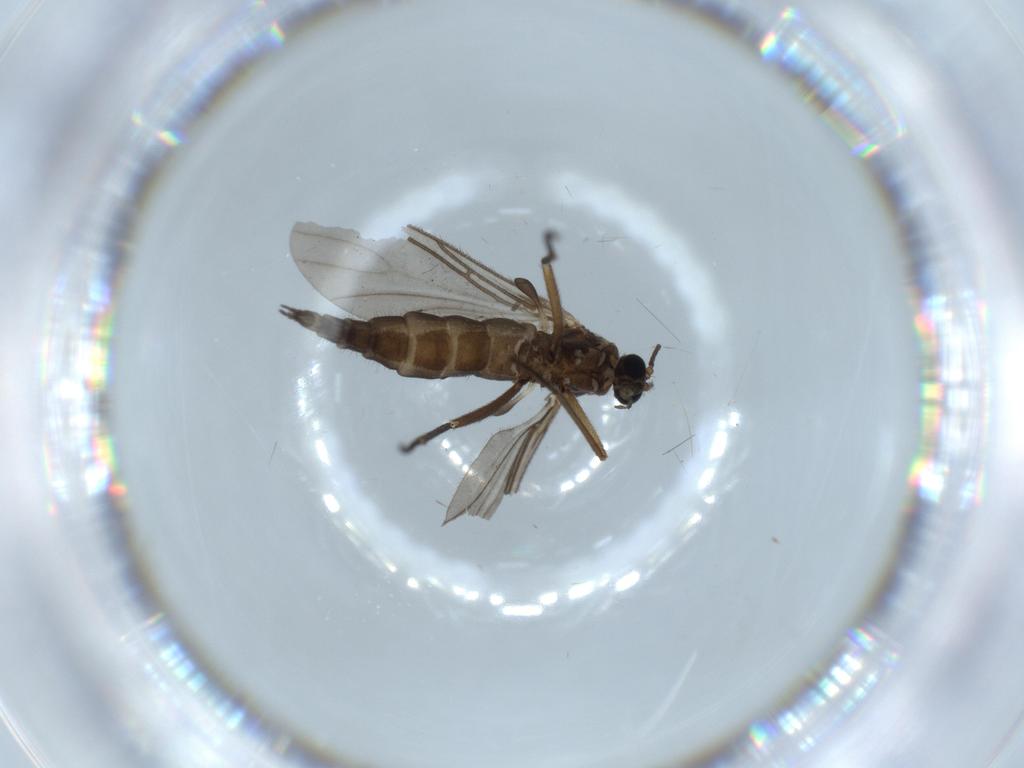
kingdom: Animalia
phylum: Arthropoda
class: Insecta
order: Diptera
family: Sciaridae
